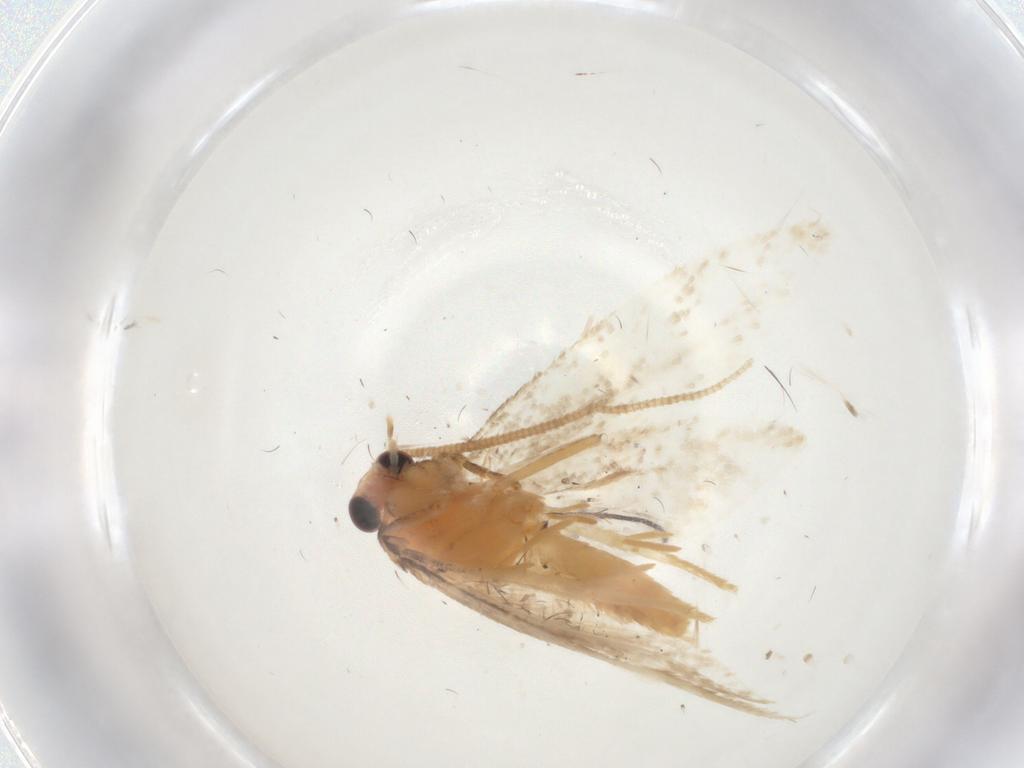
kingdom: Animalia
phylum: Arthropoda
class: Insecta
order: Lepidoptera
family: Gelechiidae
